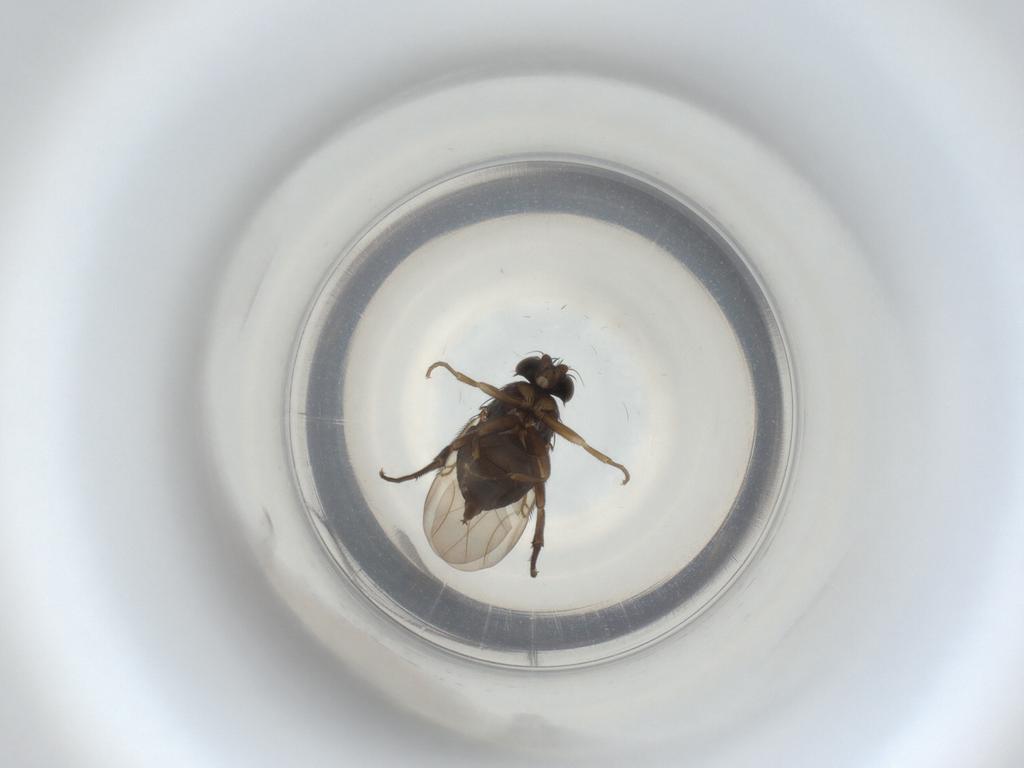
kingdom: Animalia
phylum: Arthropoda
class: Insecta
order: Diptera
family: Phoridae
